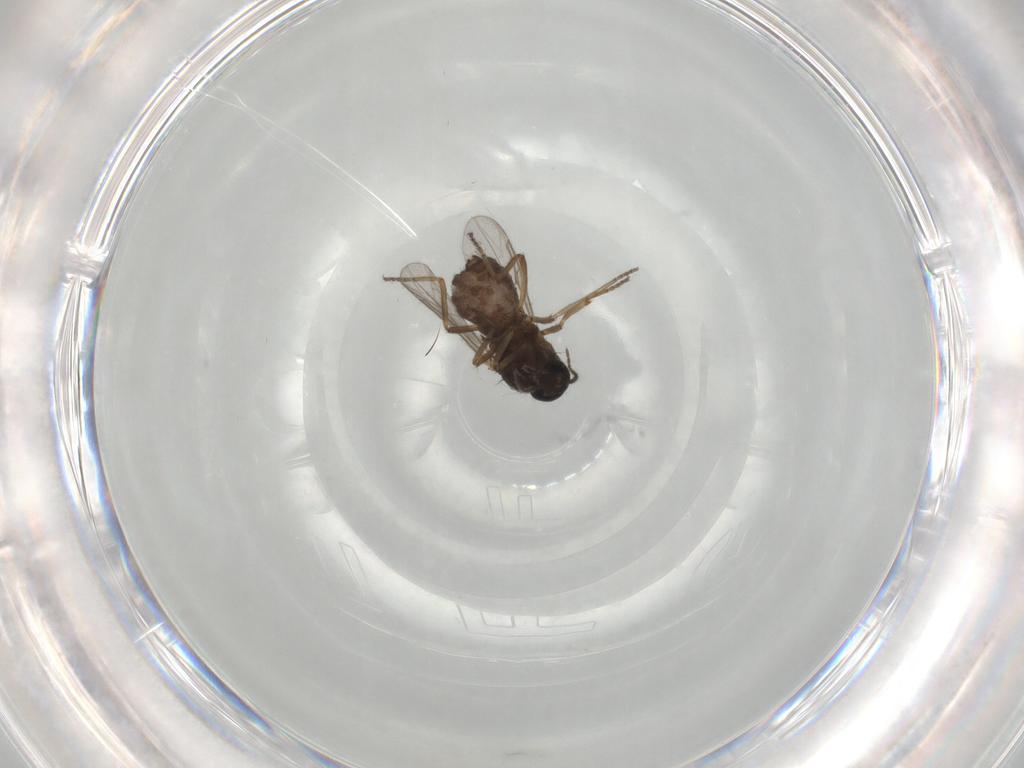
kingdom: Animalia
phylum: Arthropoda
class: Insecta
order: Diptera
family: Ceratopogonidae
